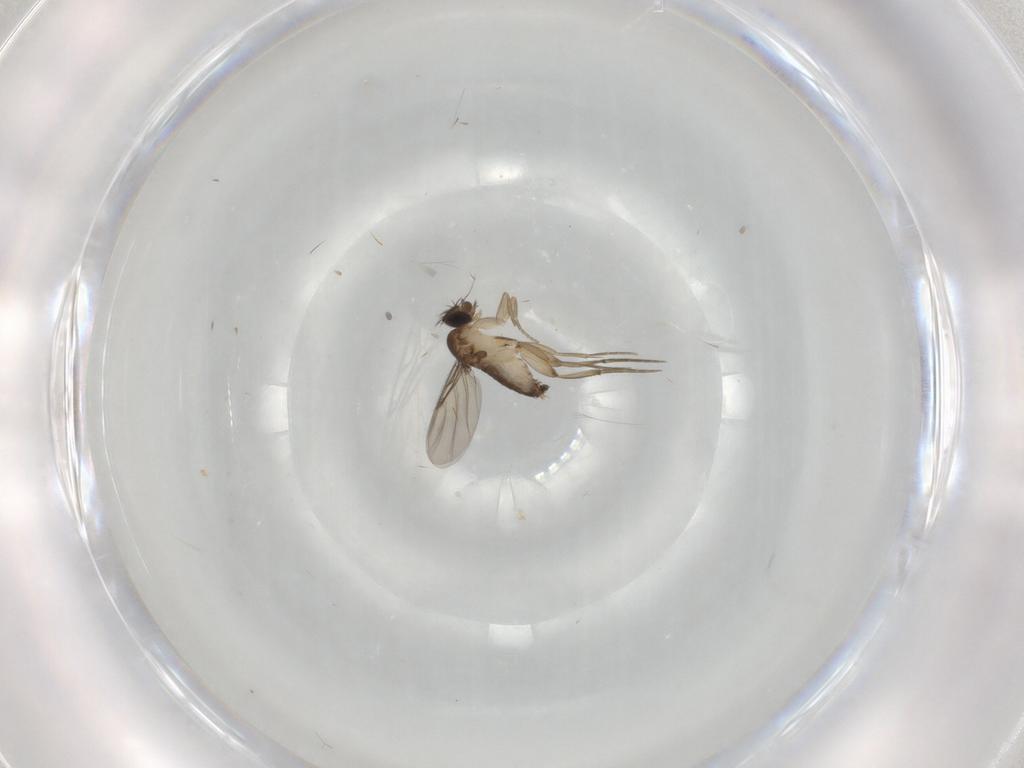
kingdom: Animalia
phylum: Arthropoda
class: Insecta
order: Diptera
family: Phoridae
